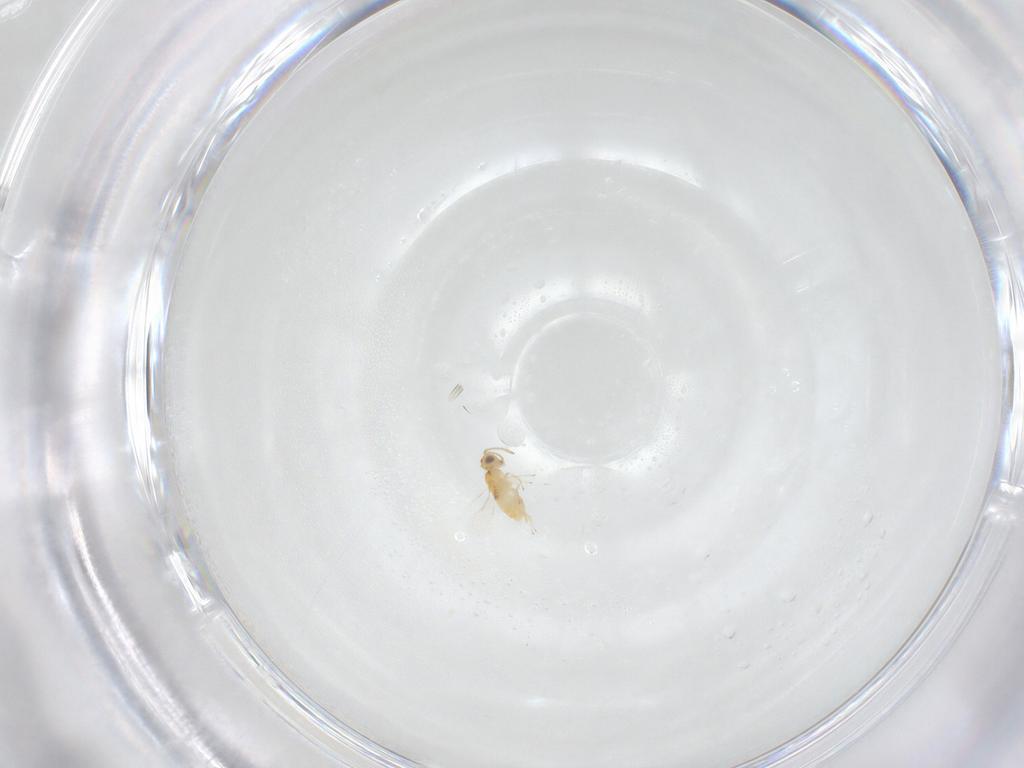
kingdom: Animalia
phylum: Arthropoda
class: Insecta
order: Hymenoptera
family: Aphelinidae
